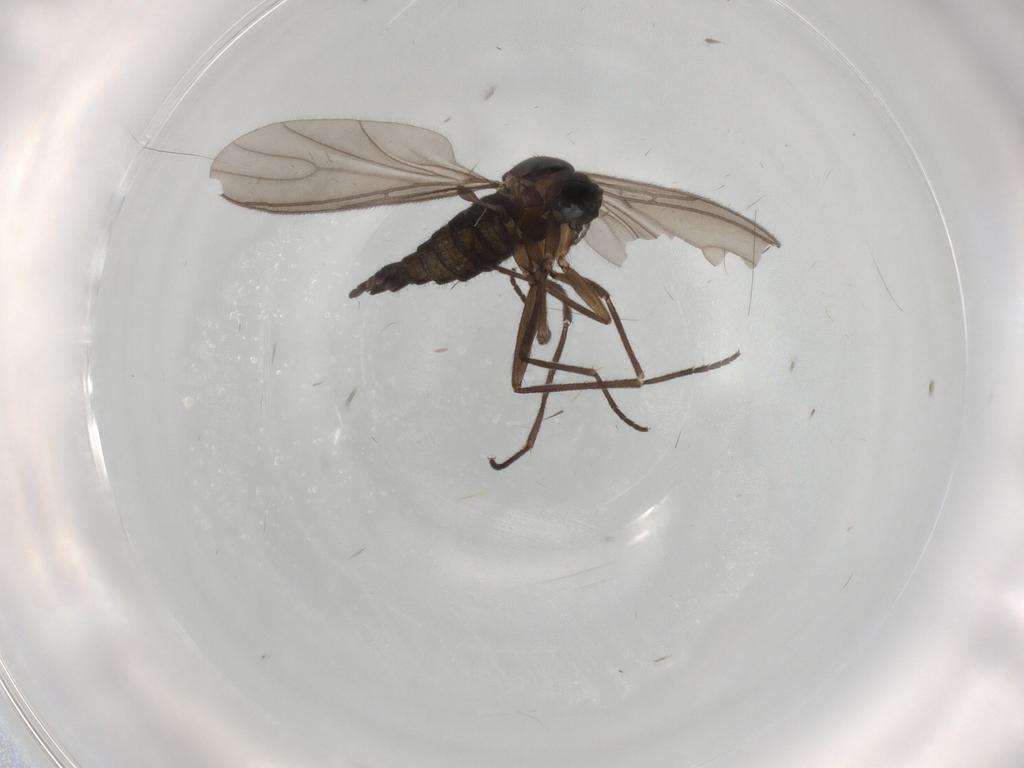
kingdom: Animalia
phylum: Arthropoda
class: Insecta
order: Diptera
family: Sciaridae
